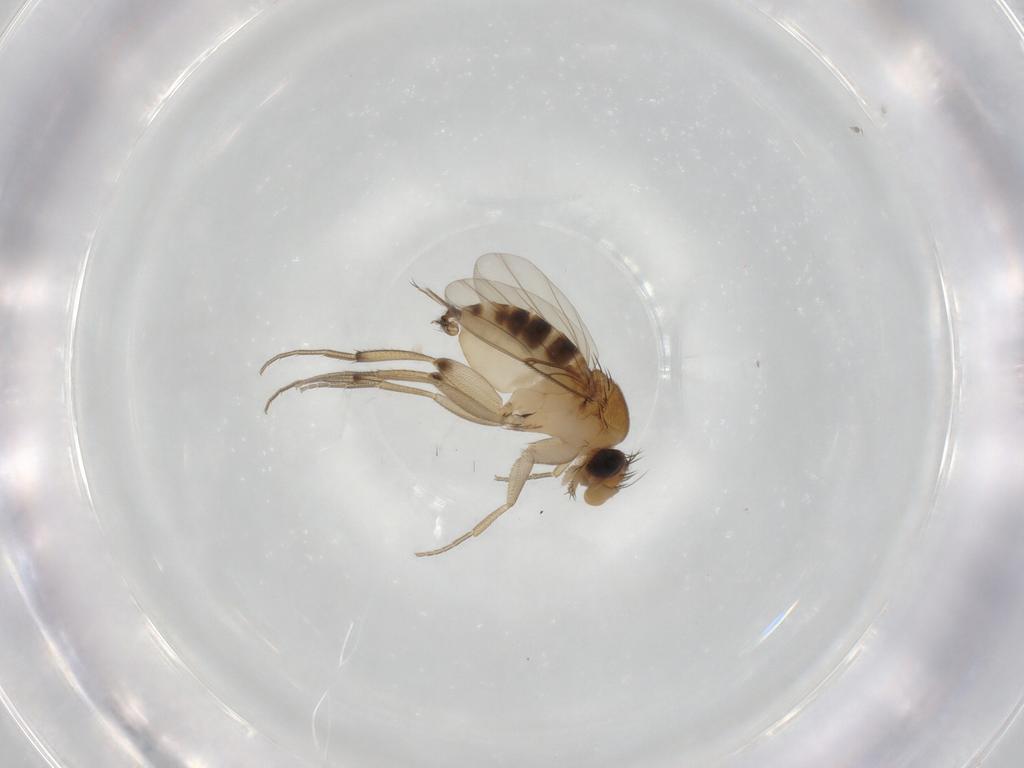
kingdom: Animalia
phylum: Arthropoda
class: Insecta
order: Diptera
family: Phoridae
